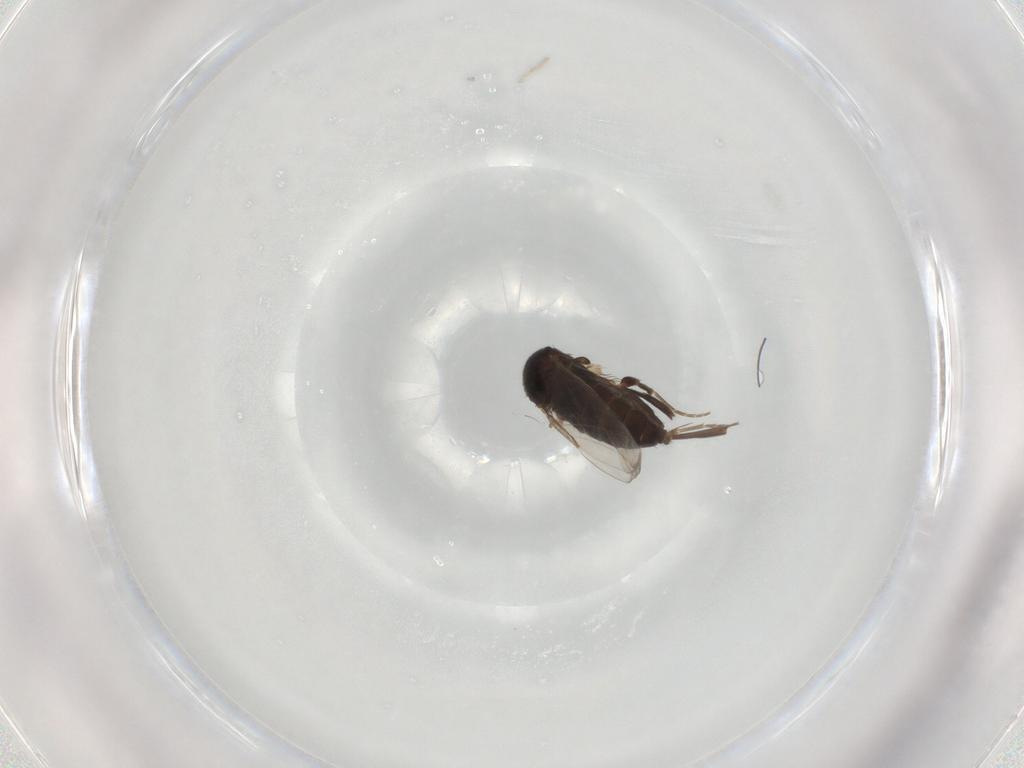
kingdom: Animalia
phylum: Arthropoda
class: Insecta
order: Diptera
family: Phoridae
